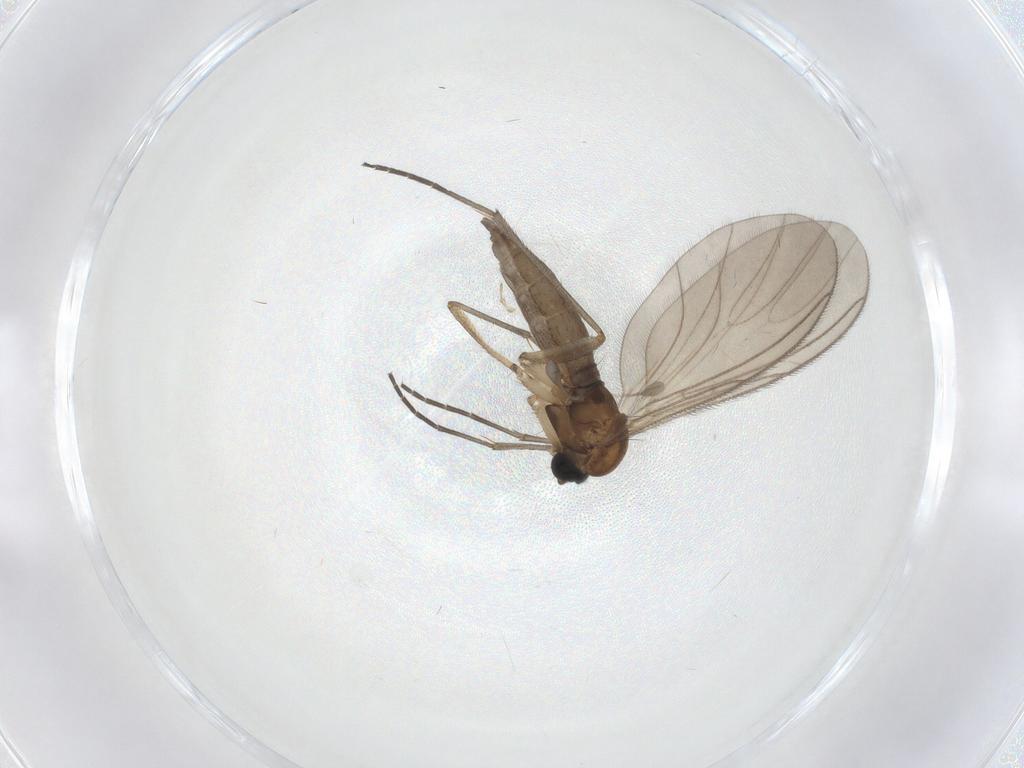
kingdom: Animalia
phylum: Arthropoda
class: Insecta
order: Diptera
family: Sciaridae
